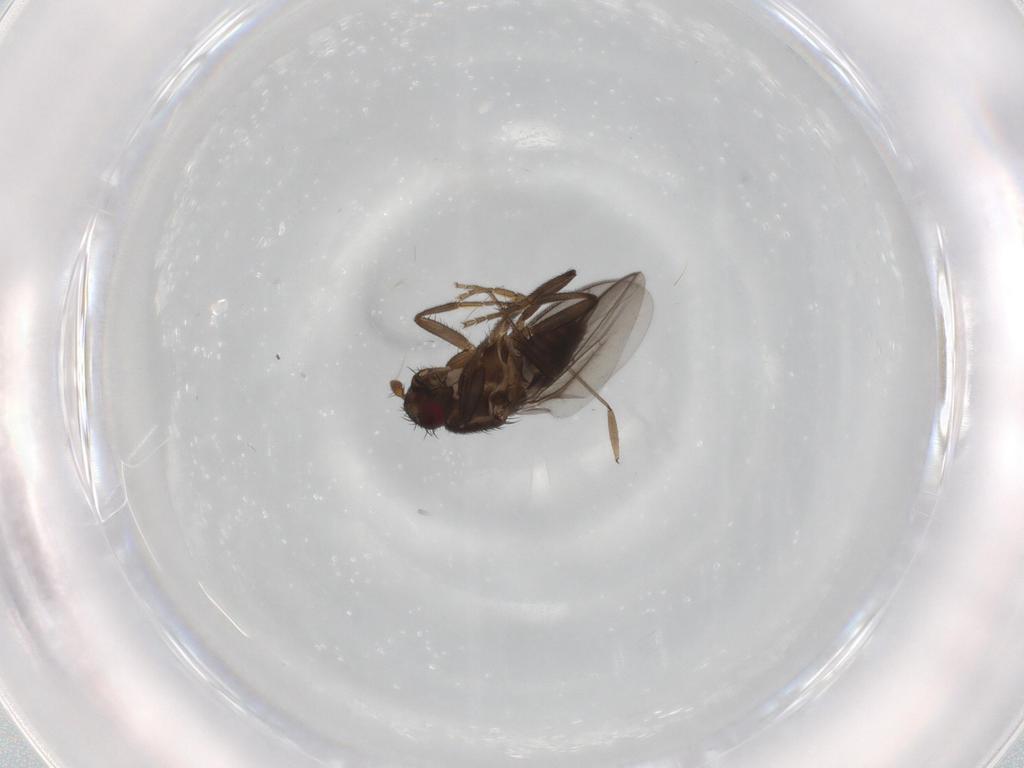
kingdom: Animalia
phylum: Arthropoda
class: Insecta
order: Diptera
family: Sphaeroceridae
